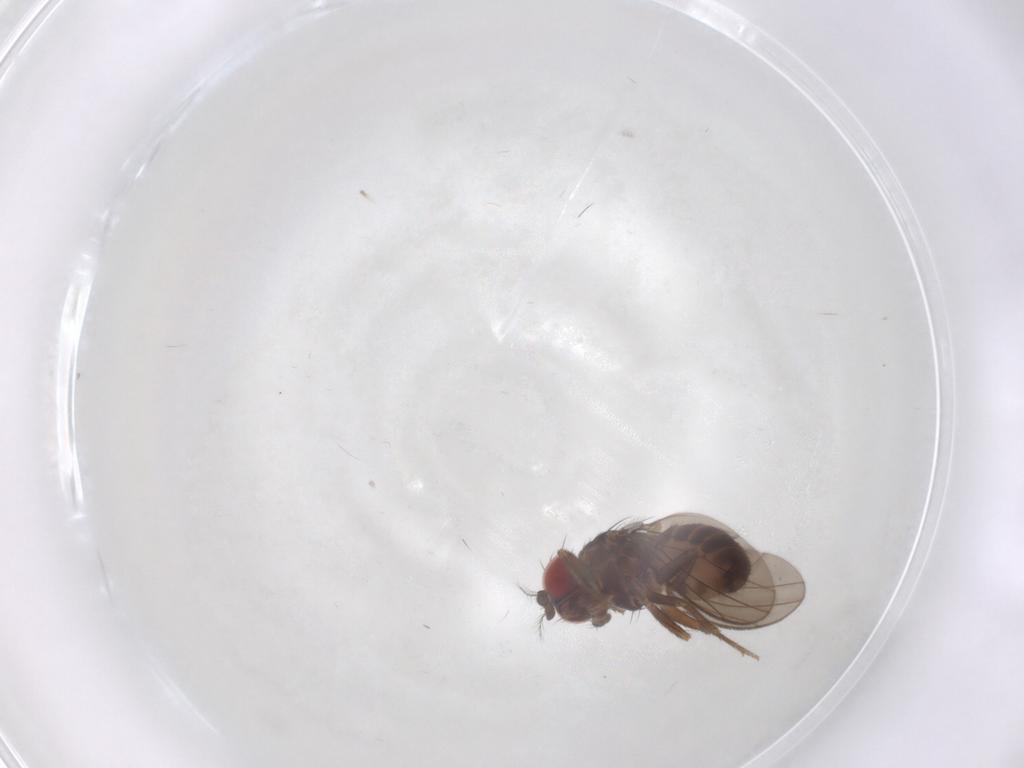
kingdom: Animalia
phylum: Arthropoda
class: Insecta
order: Diptera
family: Drosophilidae
